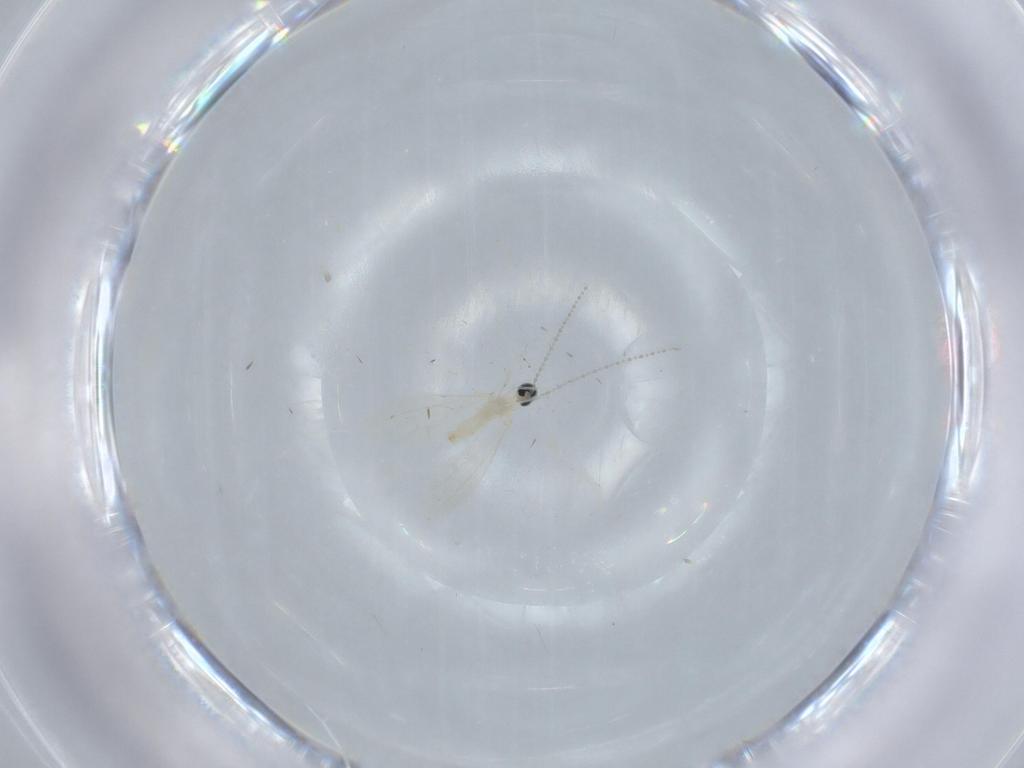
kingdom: Animalia
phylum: Arthropoda
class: Insecta
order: Diptera
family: Cecidomyiidae
